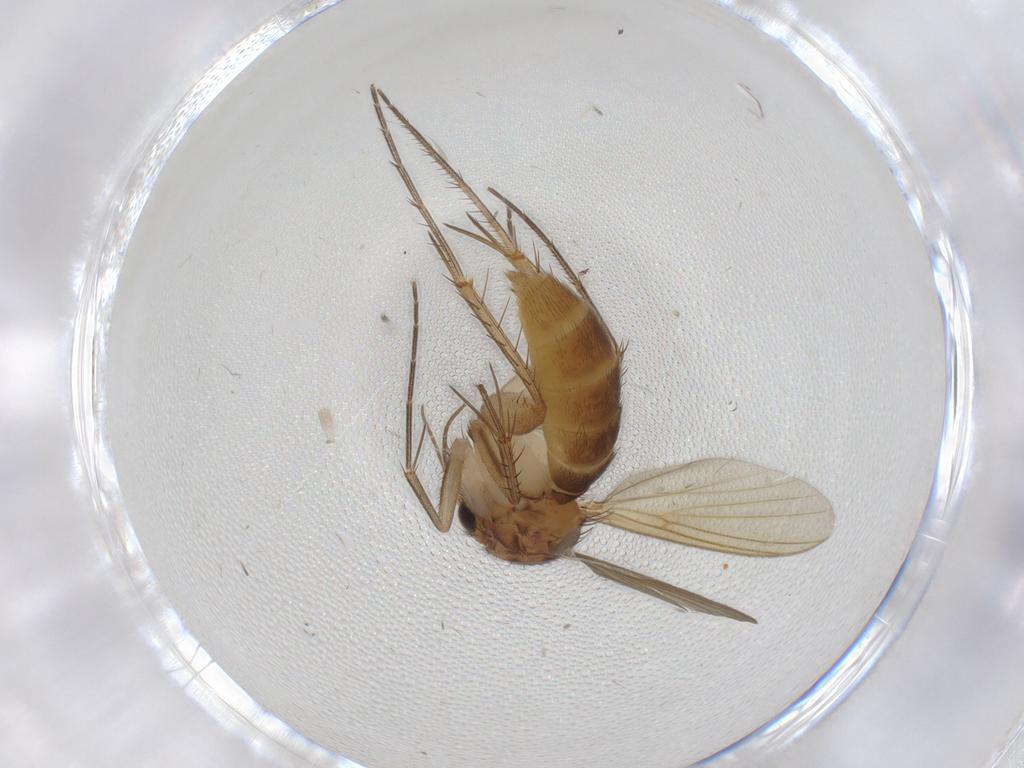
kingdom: Animalia
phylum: Arthropoda
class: Insecta
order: Diptera
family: Mycetophilidae
